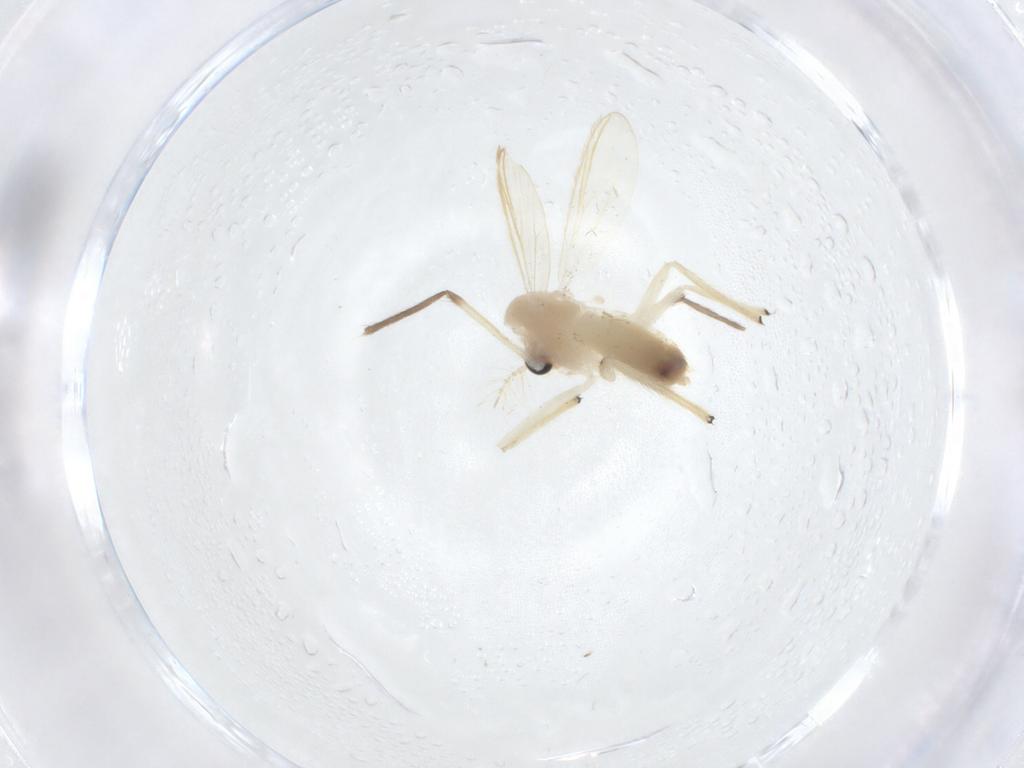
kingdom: Animalia
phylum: Arthropoda
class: Insecta
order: Diptera
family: Chironomidae
